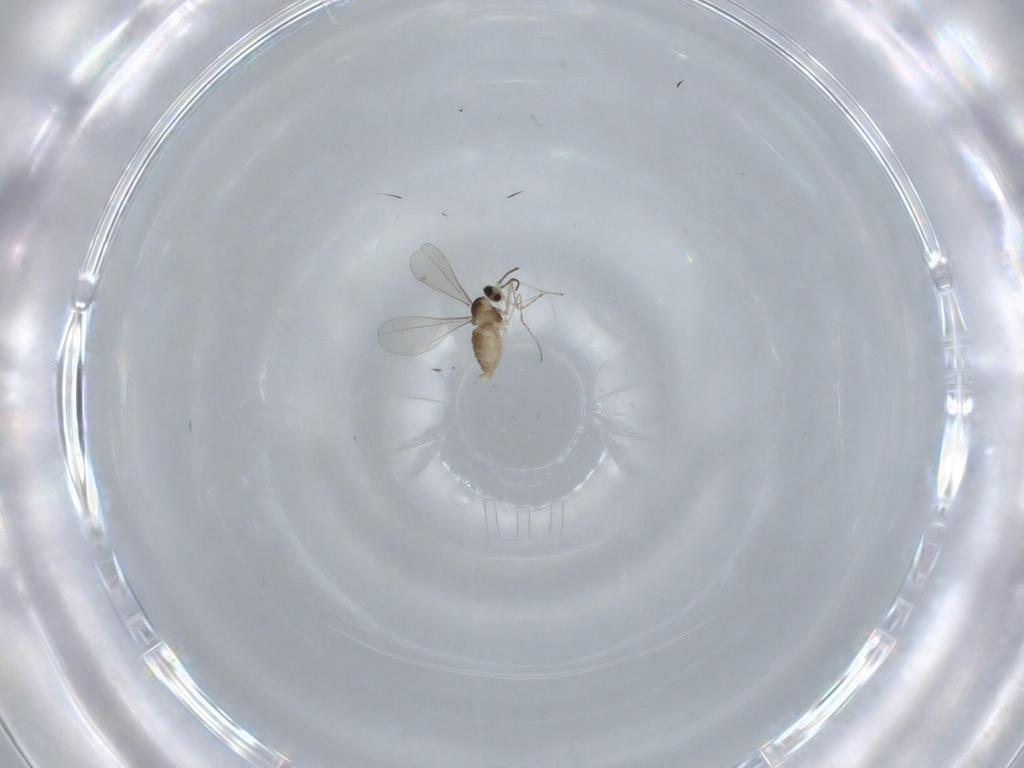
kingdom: Animalia
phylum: Arthropoda
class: Insecta
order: Diptera
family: Cecidomyiidae
